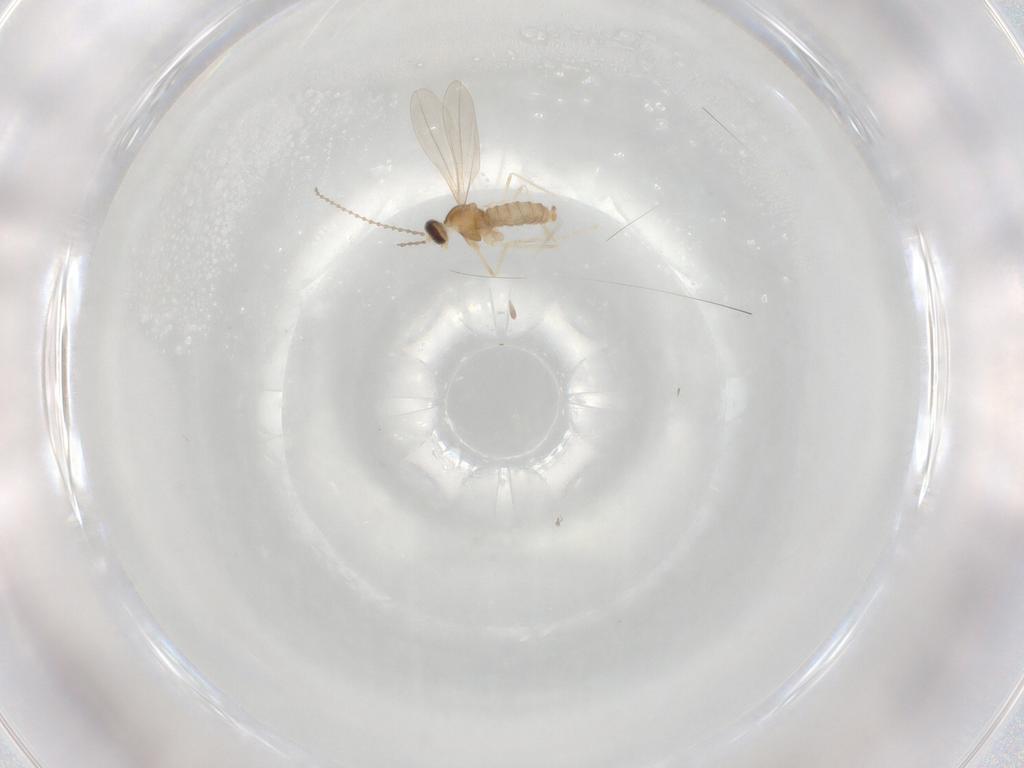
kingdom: Animalia
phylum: Arthropoda
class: Insecta
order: Diptera
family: Cecidomyiidae
